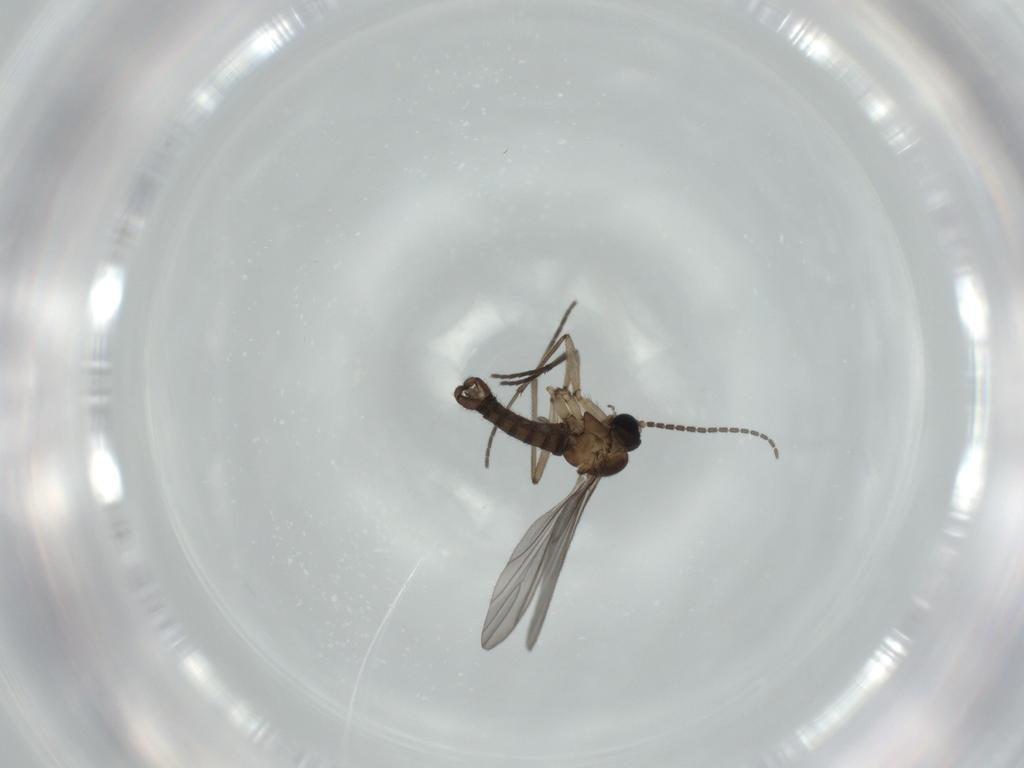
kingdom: Animalia
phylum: Arthropoda
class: Insecta
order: Diptera
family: Sciaridae
